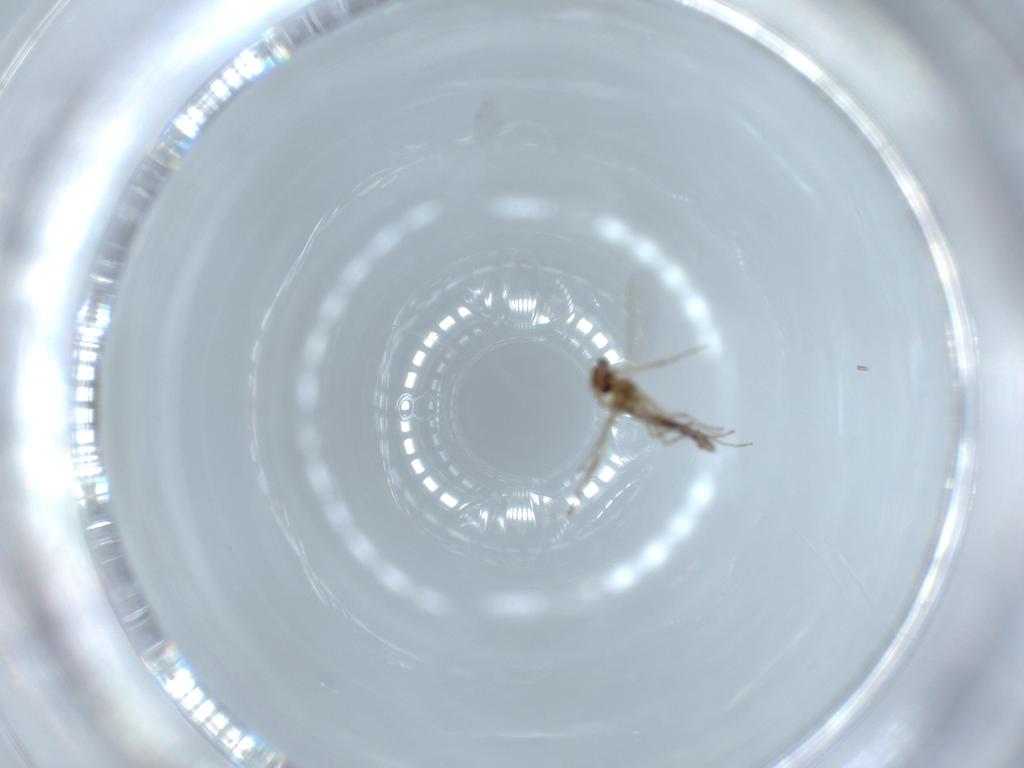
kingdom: Animalia
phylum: Arthropoda
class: Insecta
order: Diptera
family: Chironomidae
